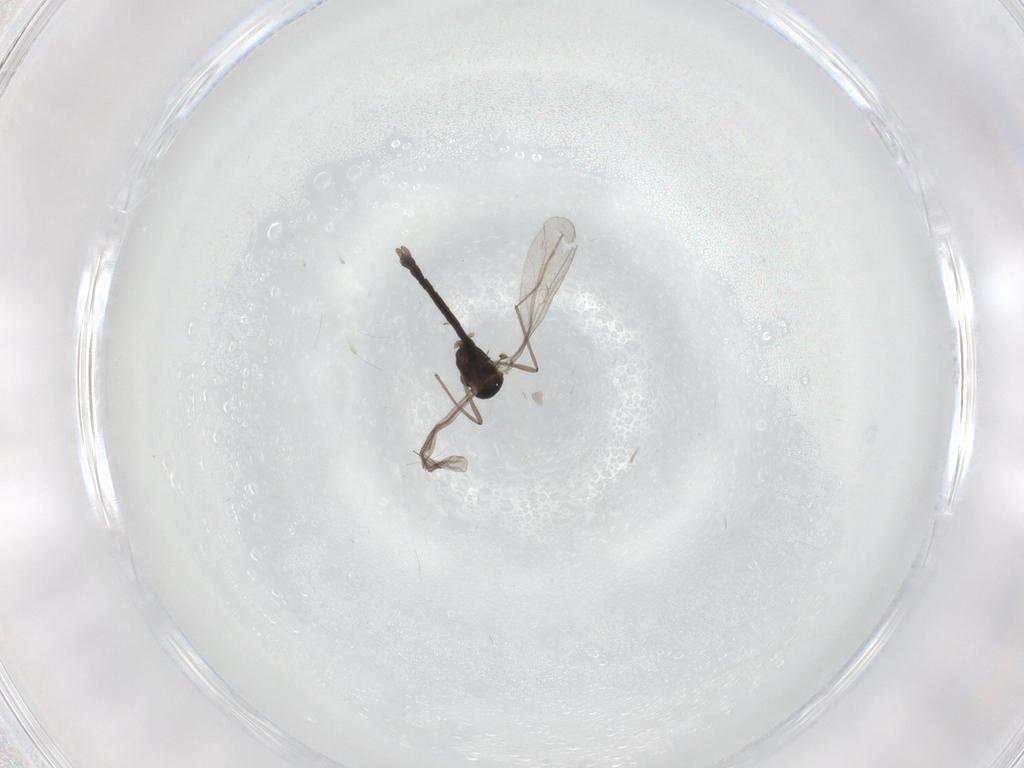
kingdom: Animalia
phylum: Arthropoda
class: Insecta
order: Diptera
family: Chironomidae
